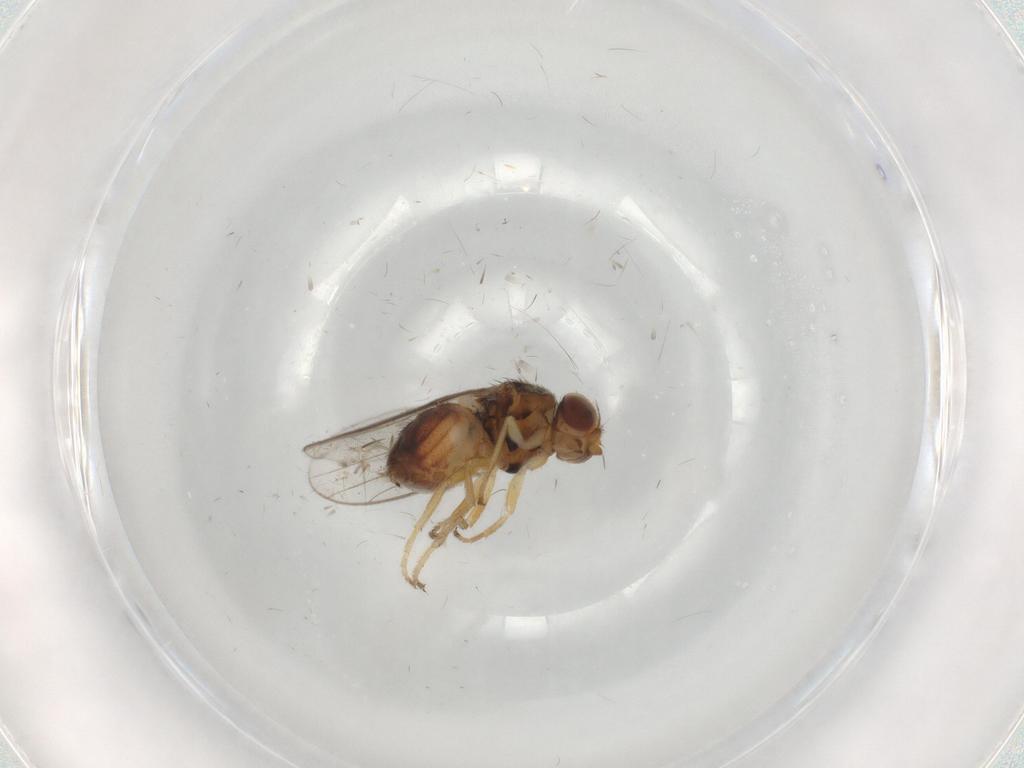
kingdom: Animalia
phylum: Arthropoda
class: Insecta
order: Diptera
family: Chloropidae
